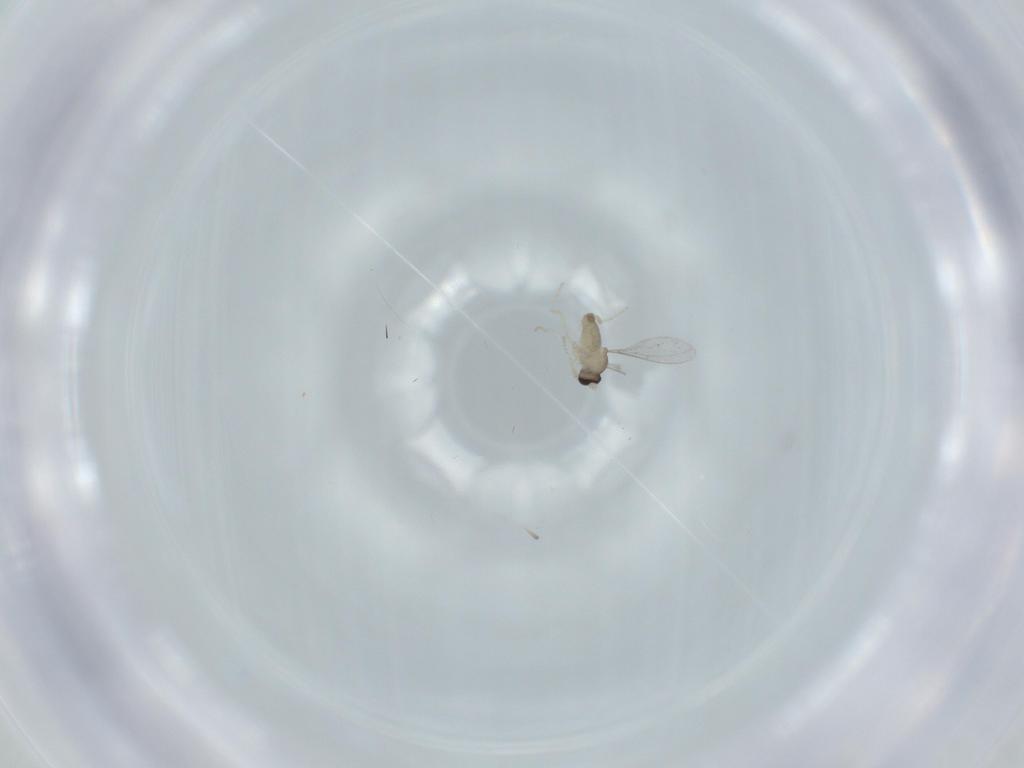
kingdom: Animalia
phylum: Arthropoda
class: Insecta
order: Diptera
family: Cecidomyiidae
